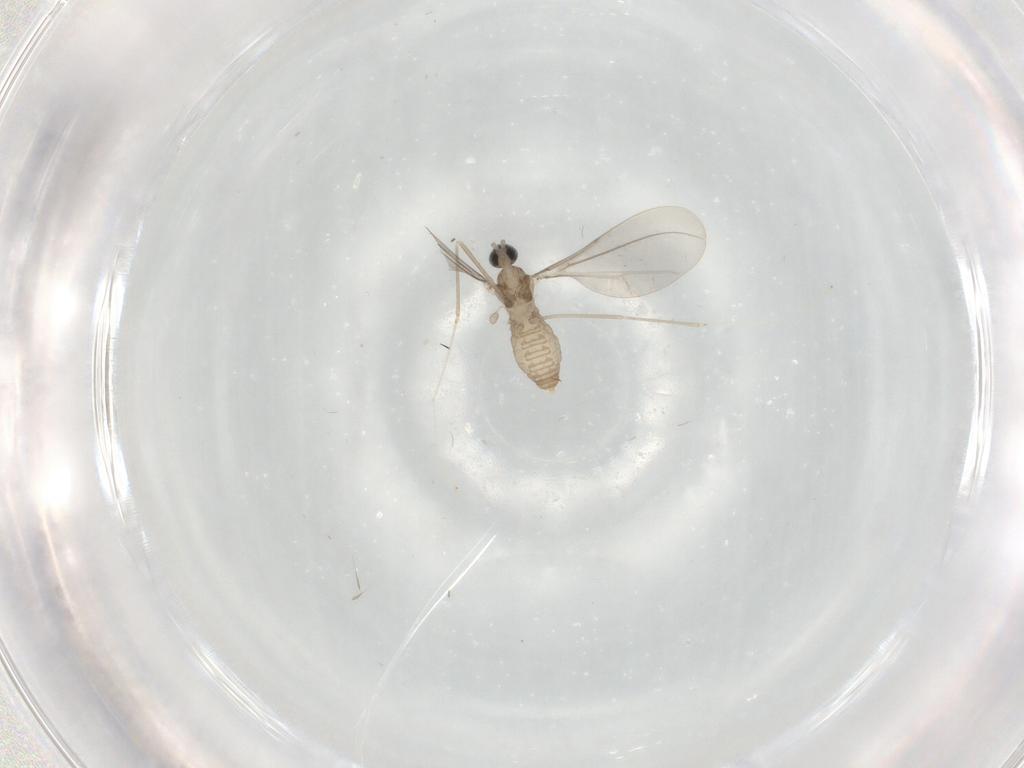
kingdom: Animalia
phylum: Arthropoda
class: Insecta
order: Diptera
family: Cecidomyiidae
